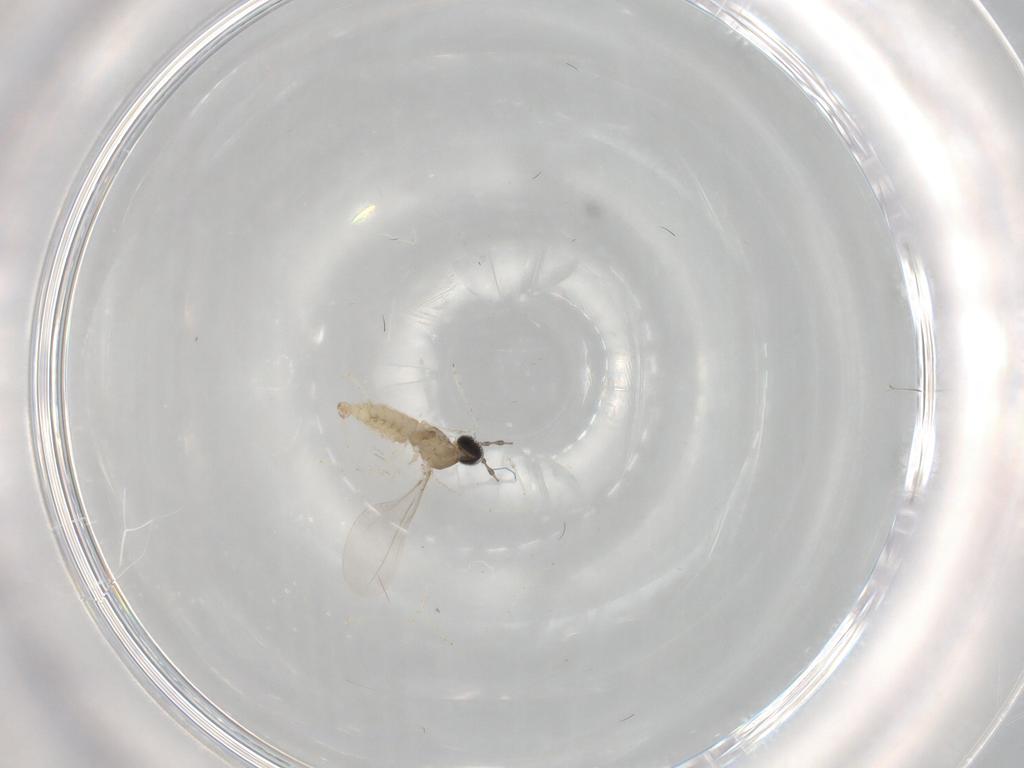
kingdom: Animalia
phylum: Arthropoda
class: Insecta
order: Diptera
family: Cecidomyiidae
